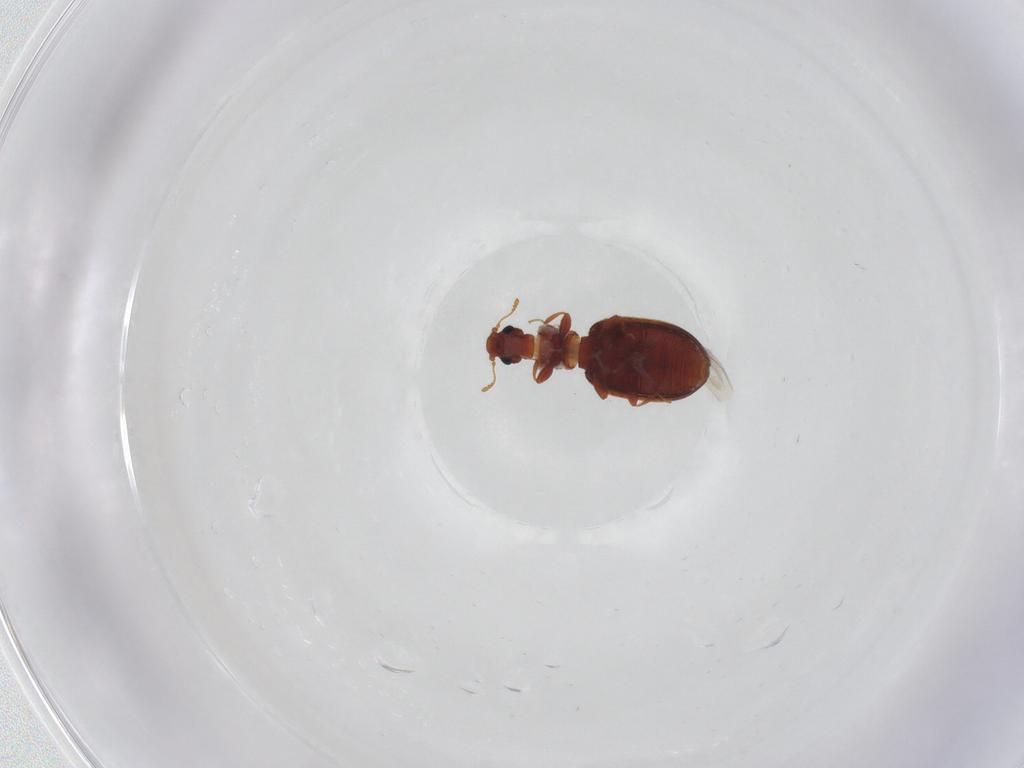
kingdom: Animalia
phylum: Arthropoda
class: Insecta
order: Coleoptera
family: Latridiidae
